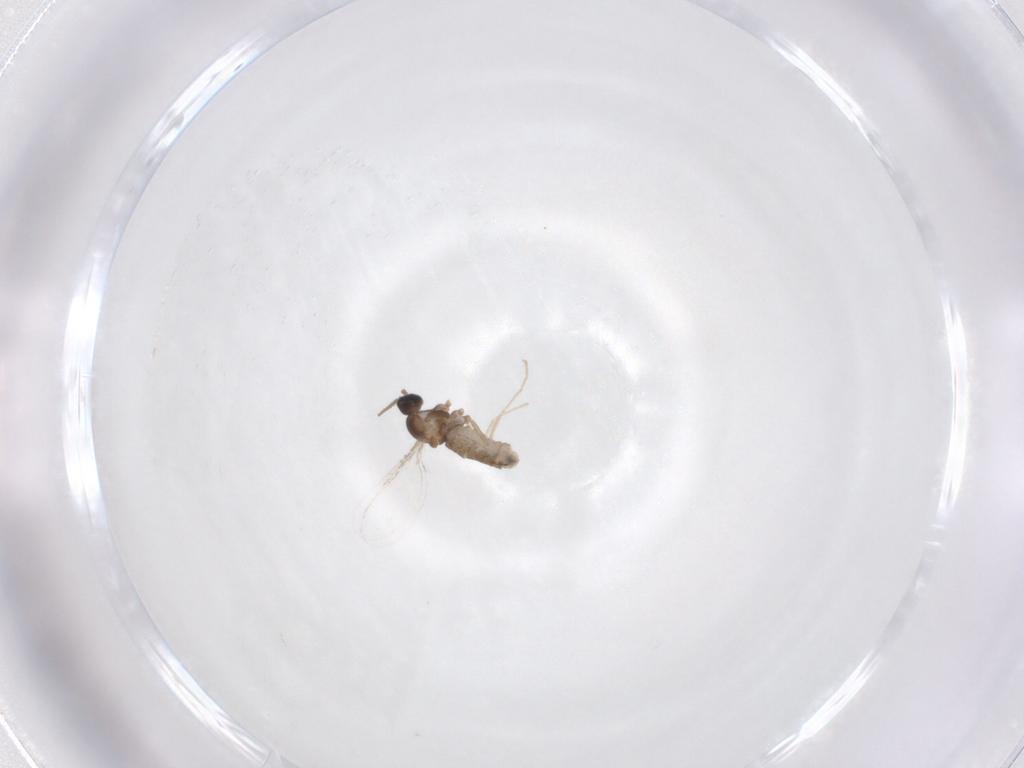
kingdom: Animalia
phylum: Arthropoda
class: Insecta
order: Diptera
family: Cecidomyiidae
